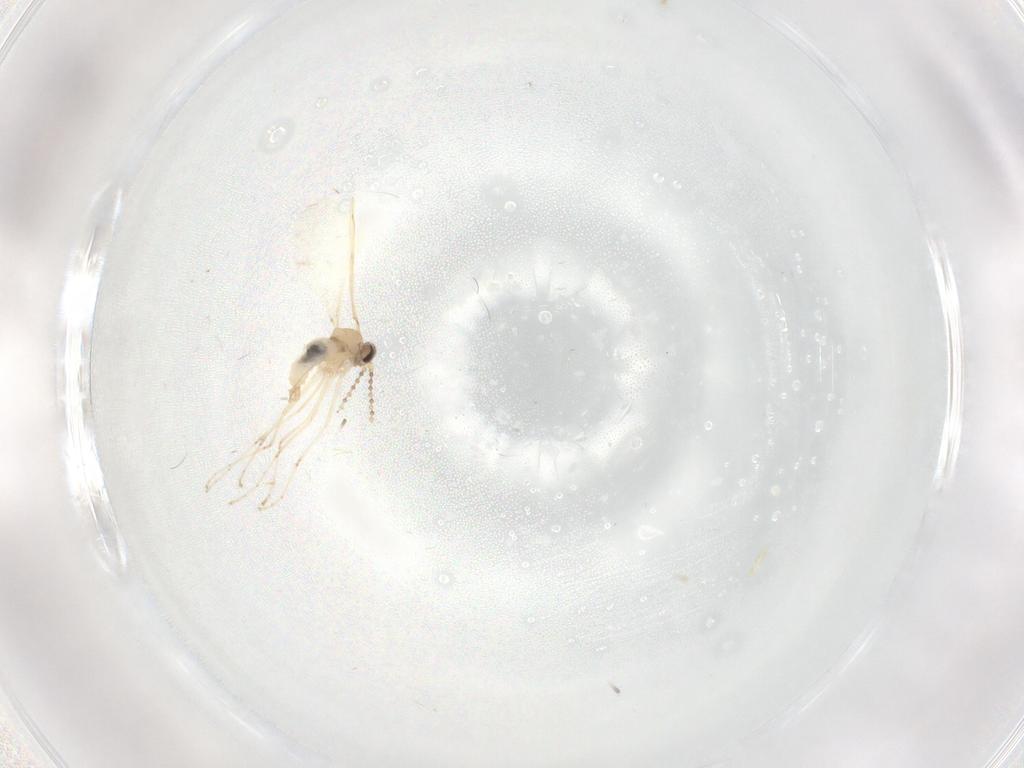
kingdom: Animalia
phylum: Arthropoda
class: Insecta
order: Diptera
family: Cecidomyiidae
